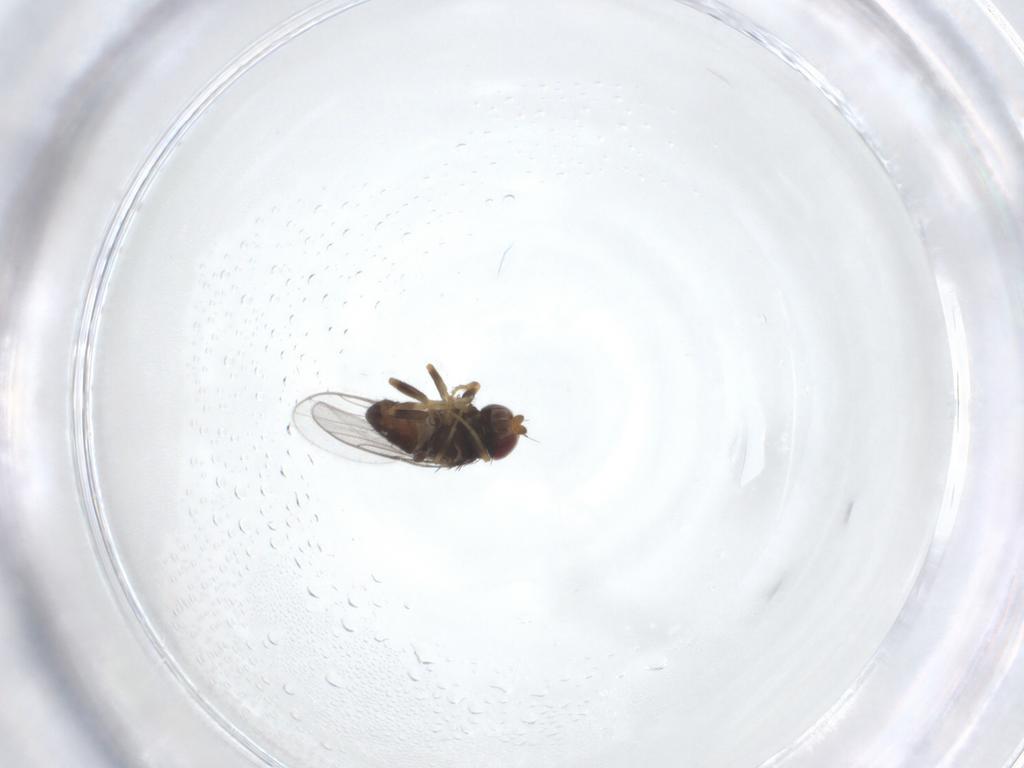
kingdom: Animalia
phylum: Arthropoda
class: Insecta
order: Diptera
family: Chloropidae
